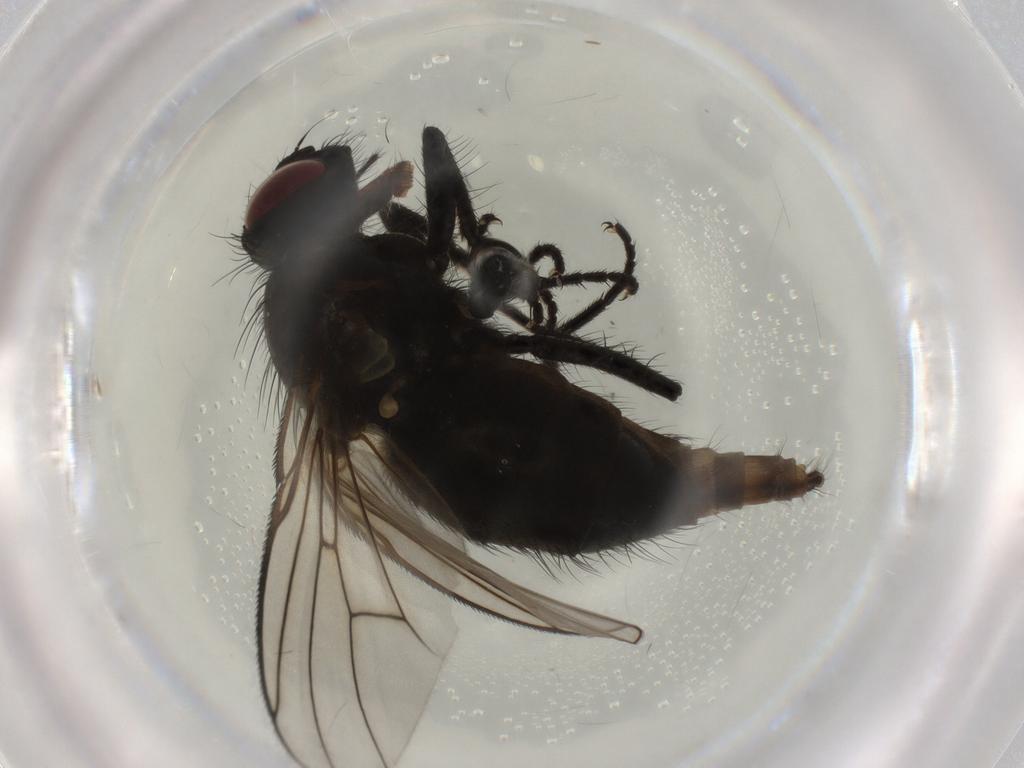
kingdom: Animalia
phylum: Arthropoda
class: Insecta
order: Diptera
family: Muscidae
